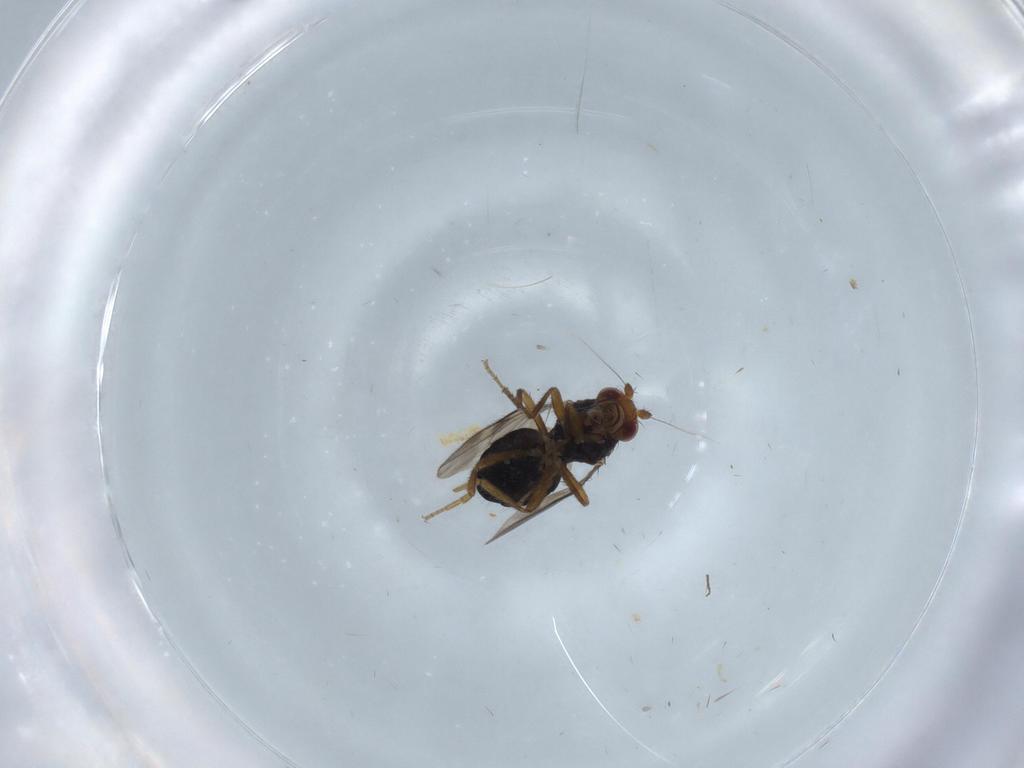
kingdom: Animalia
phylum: Arthropoda
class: Insecta
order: Diptera
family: Sphaeroceridae
